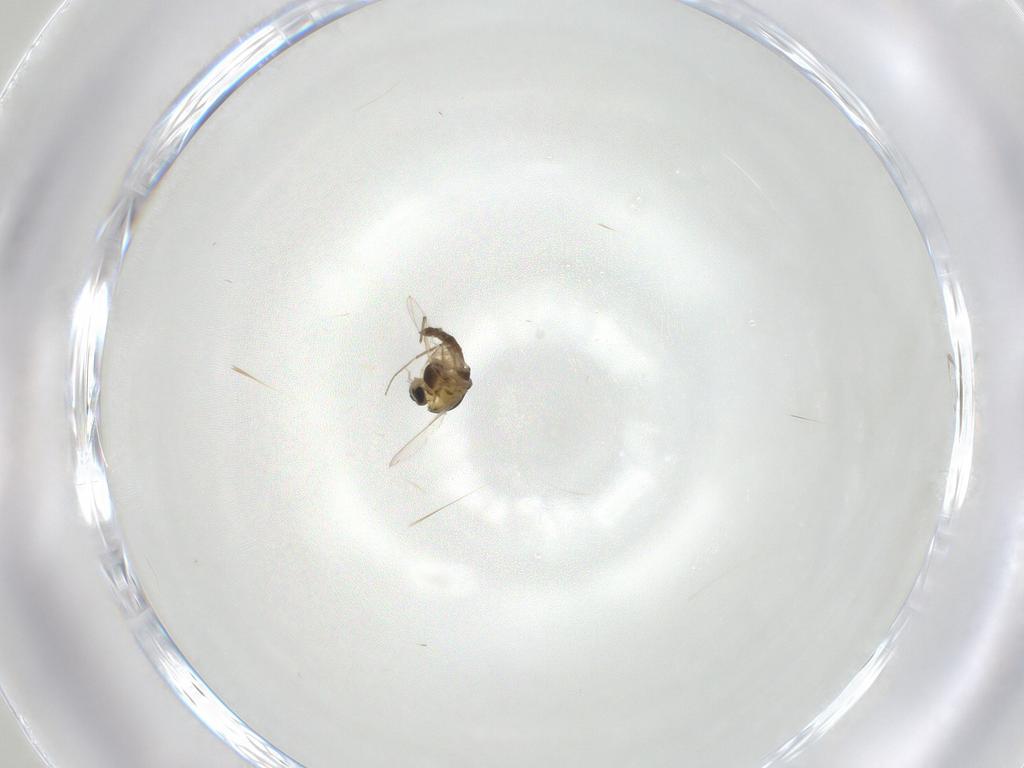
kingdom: Animalia
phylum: Arthropoda
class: Insecta
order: Diptera
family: Chironomidae
